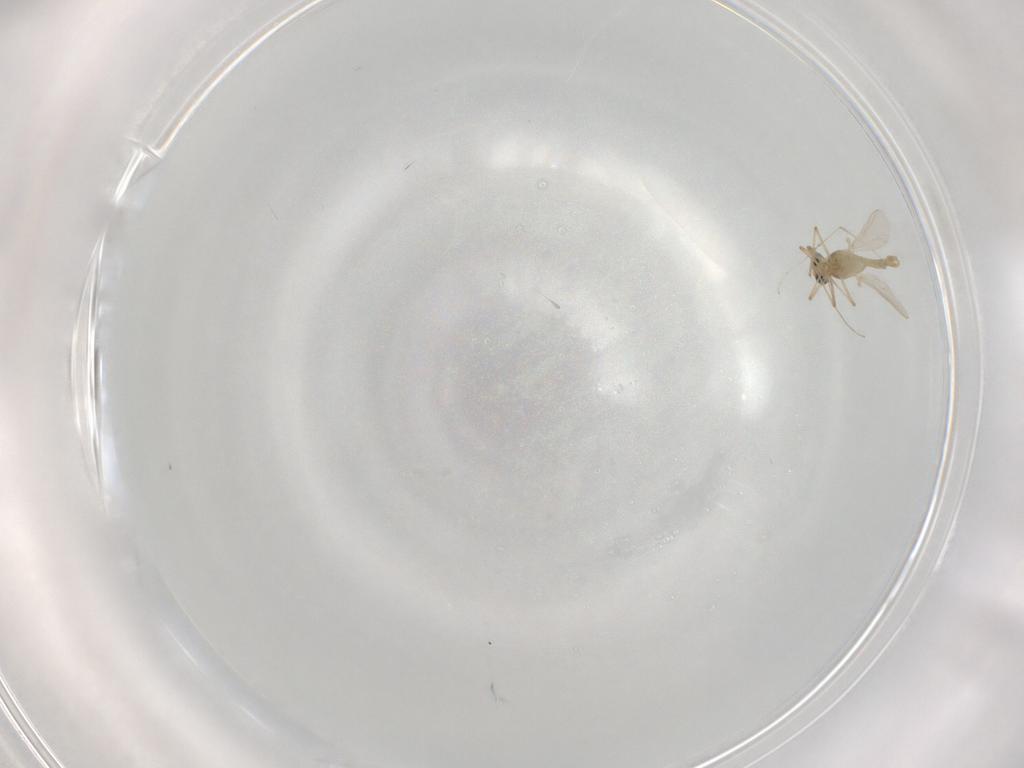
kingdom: Animalia
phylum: Arthropoda
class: Insecta
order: Diptera
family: Sciaridae
